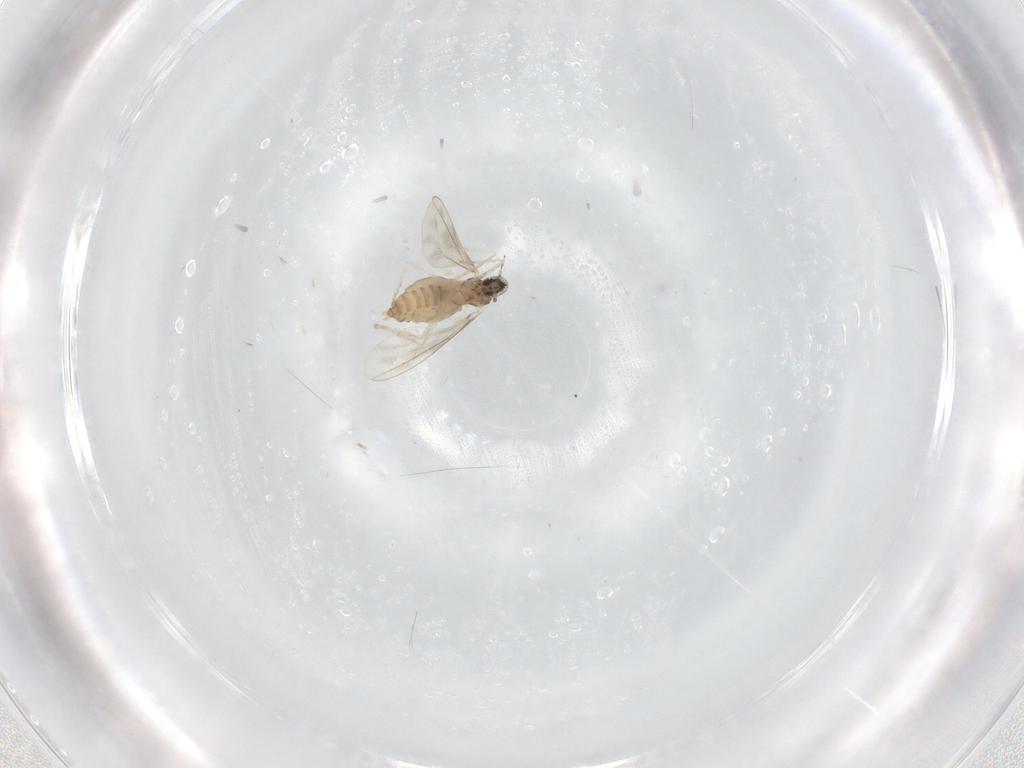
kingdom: Animalia
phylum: Arthropoda
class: Insecta
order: Diptera
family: Cecidomyiidae
